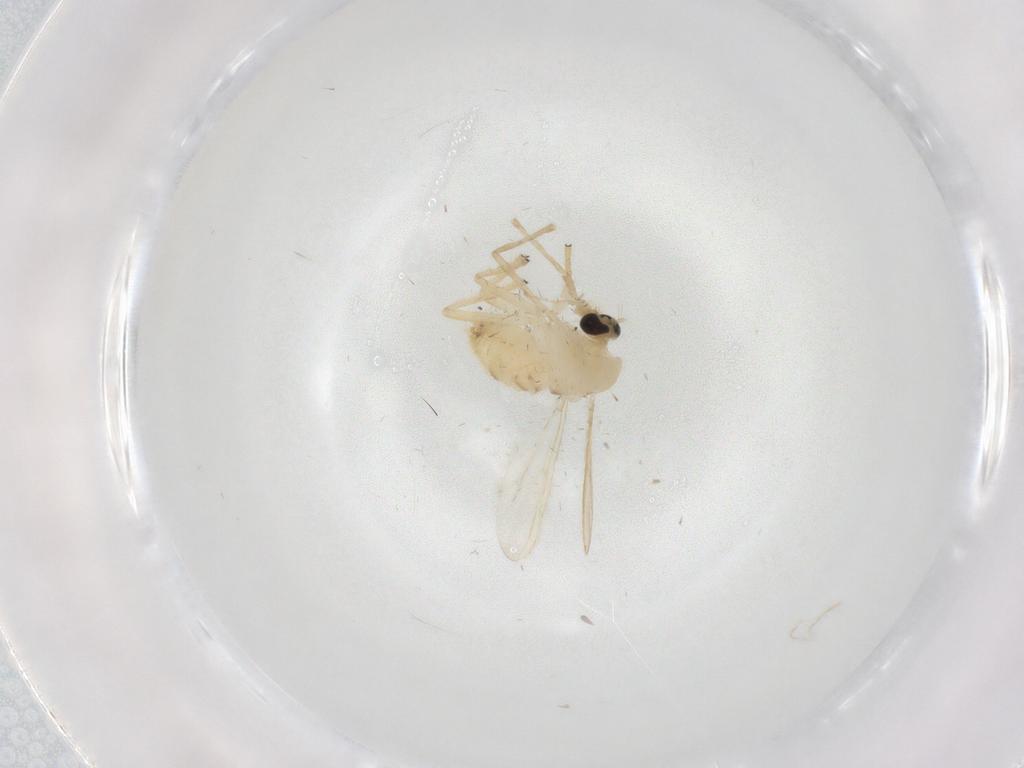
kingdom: Animalia
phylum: Arthropoda
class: Insecta
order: Diptera
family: Chironomidae
